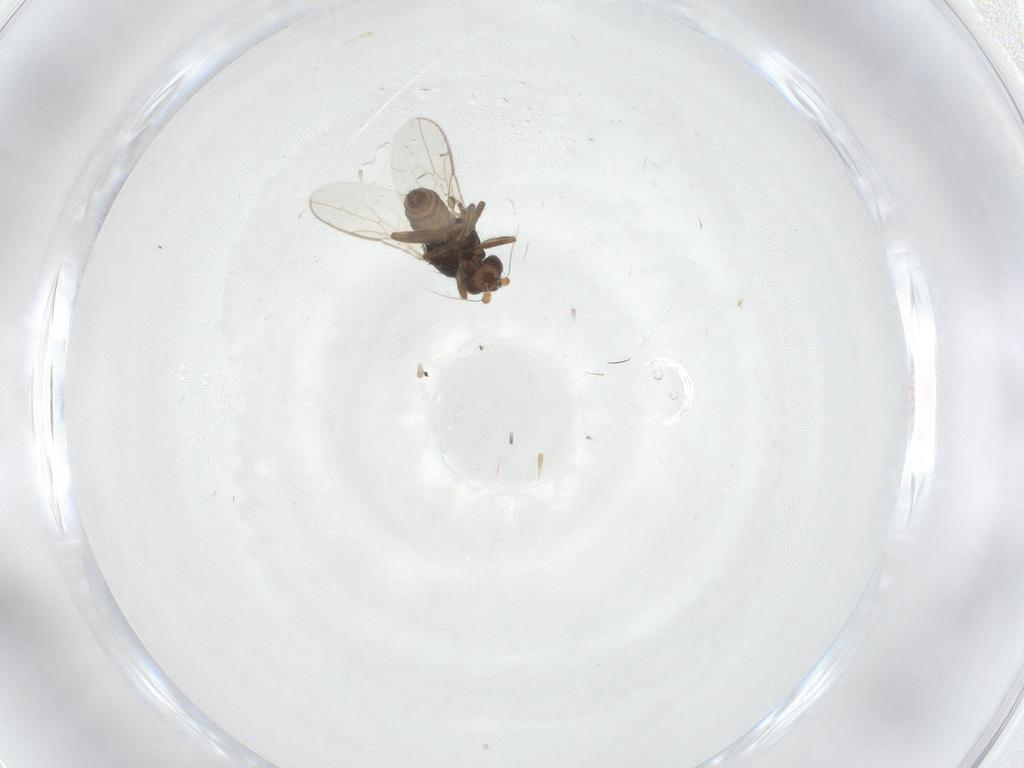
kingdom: Animalia
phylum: Arthropoda
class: Insecta
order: Diptera
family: Sphaeroceridae
